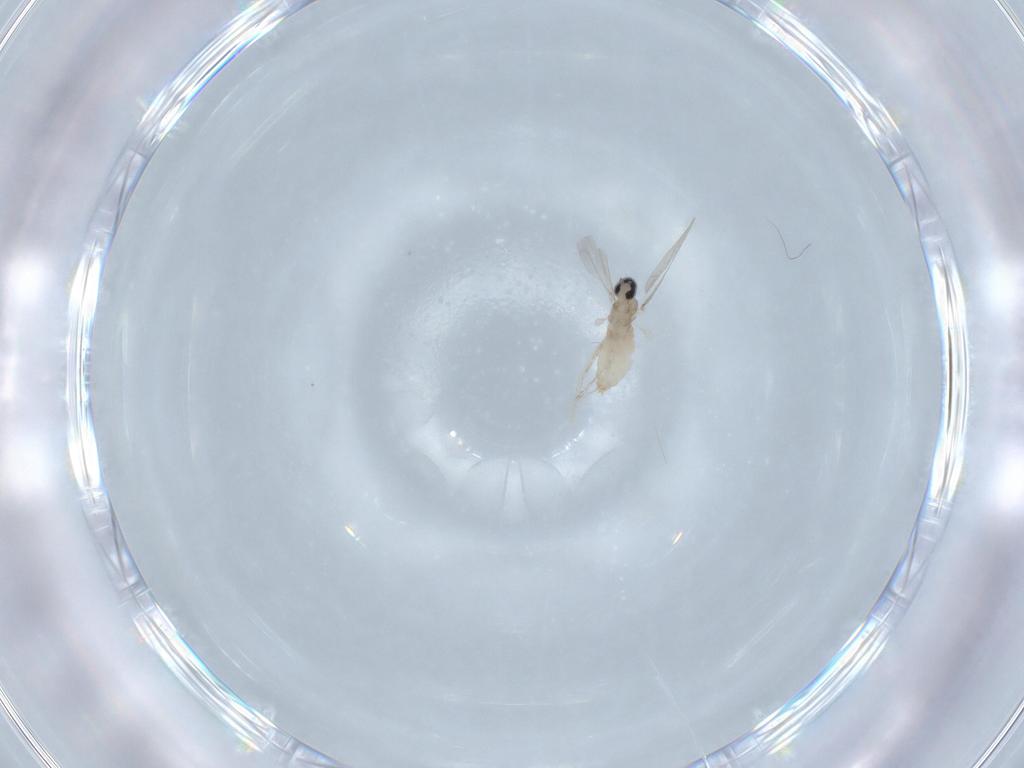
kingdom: Animalia
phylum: Arthropoda
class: Insecta
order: Diptera
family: Cecidomyiidae
